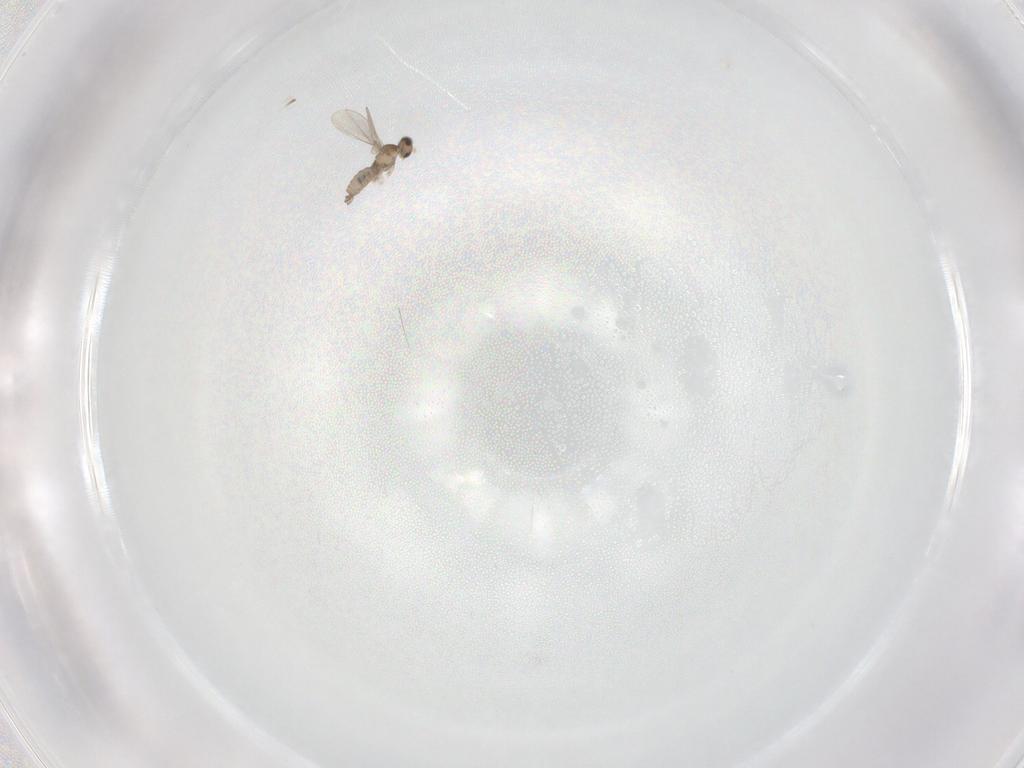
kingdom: Animalia
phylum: Arthropoda
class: Insecta
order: Diptera
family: Cecidomyiidae
